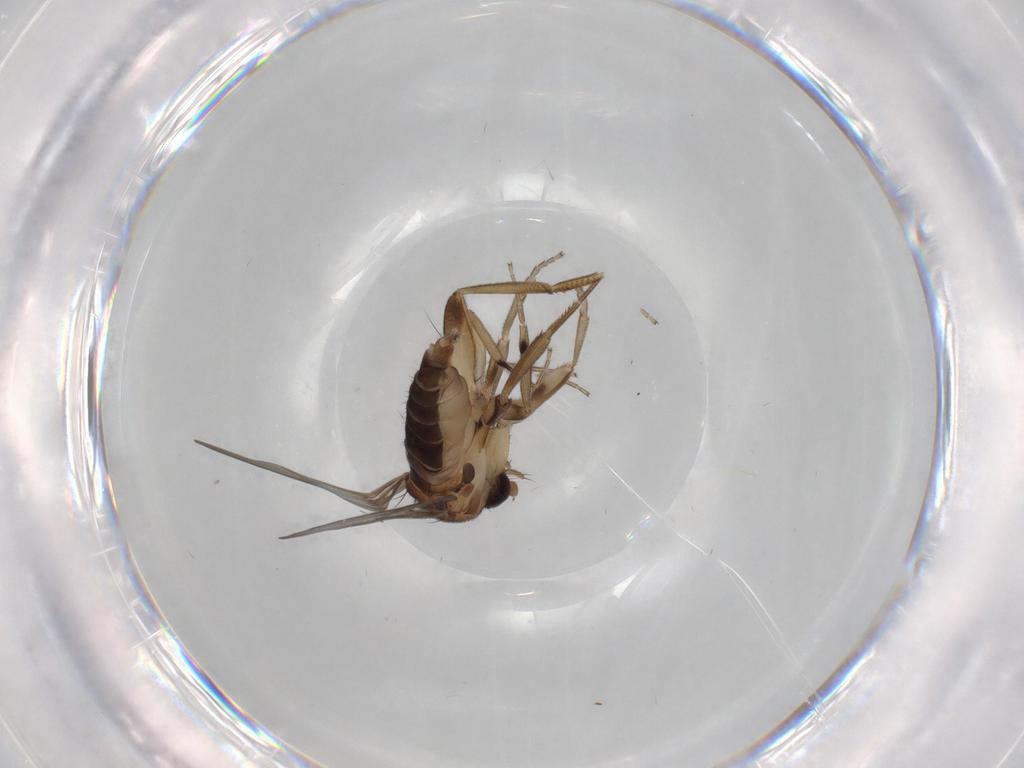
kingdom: Animalia
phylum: Arthropoda
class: Insecta
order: Diptera
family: Phoridae
